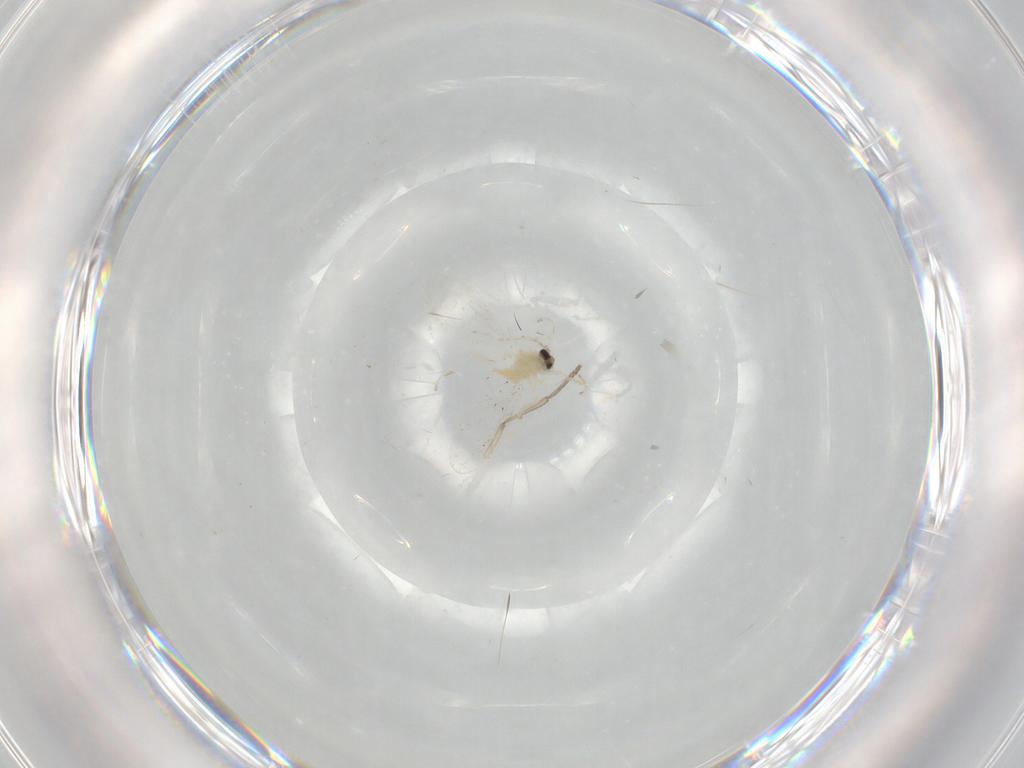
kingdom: Animalia
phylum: Arthropoda
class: Insecta
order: Diptera
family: Cecidomyiidae
